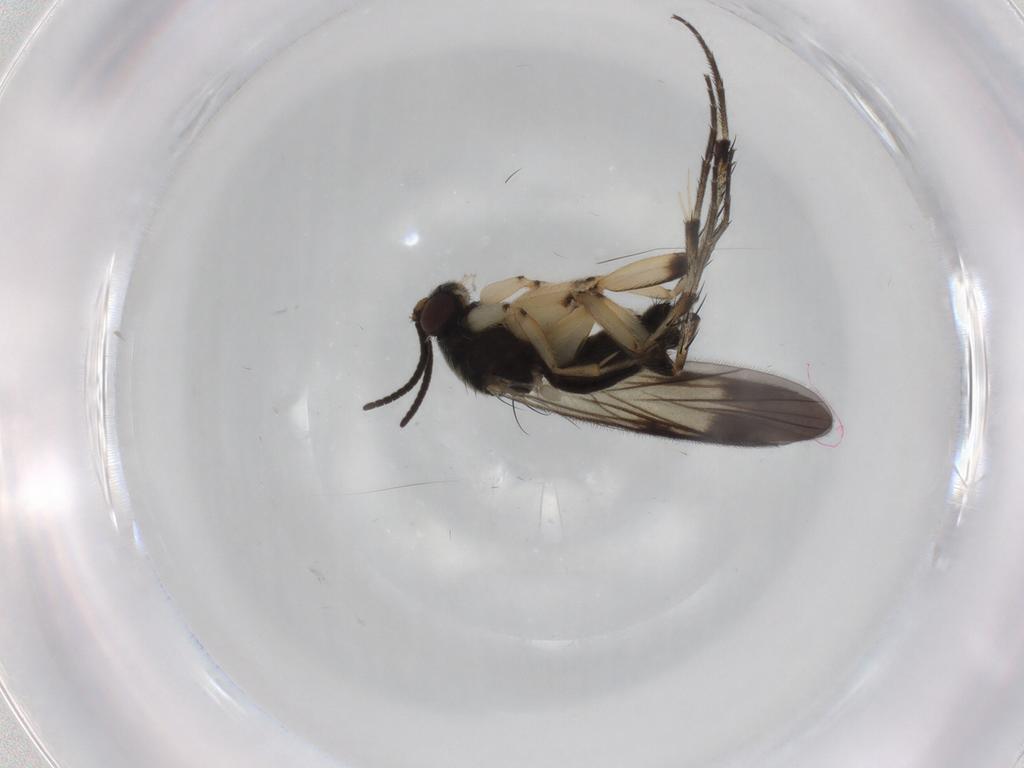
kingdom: Animalia
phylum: Arthropoda
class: Insecta
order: Diptera
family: Mycetophilidae
